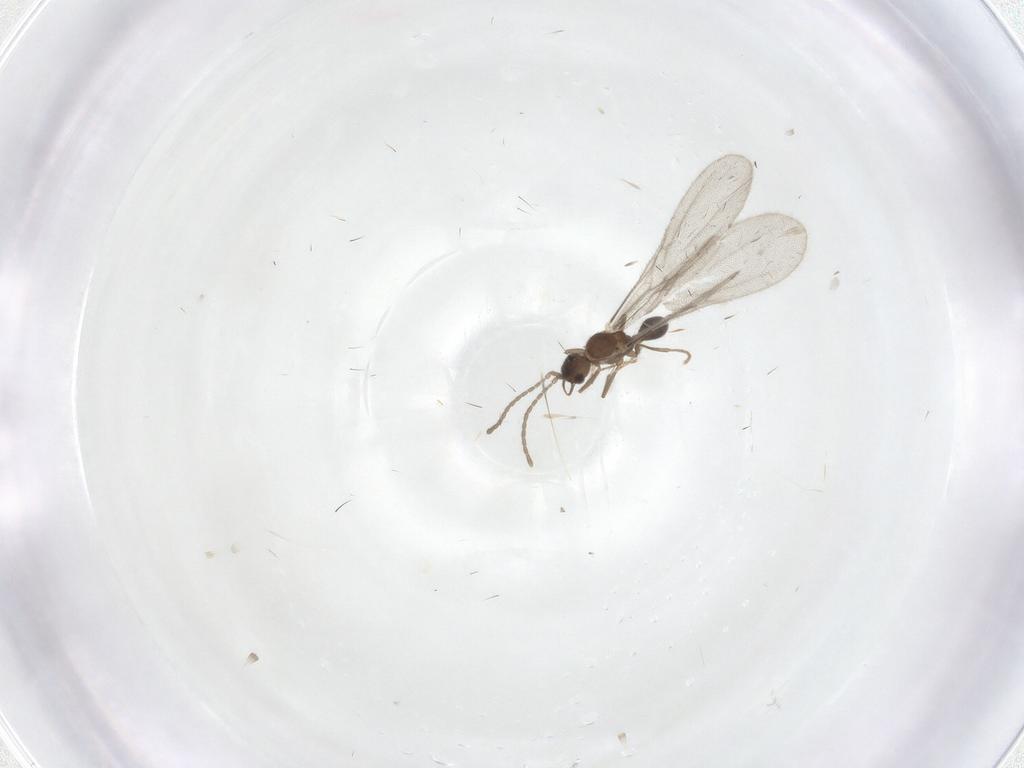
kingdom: Animalia
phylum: Arthropoda
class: Insecta
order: Hymenoptera
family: Formicidae
